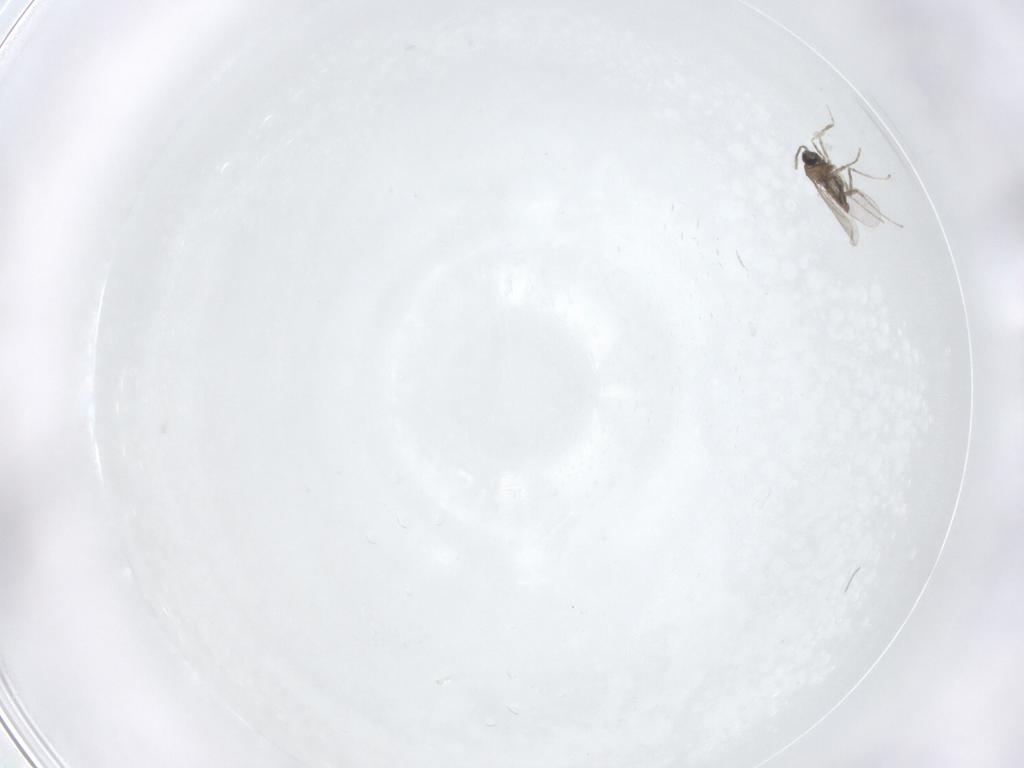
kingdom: Animalia
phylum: Arthropoda
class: Insecta
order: Diptera
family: Cecidomyiidae
